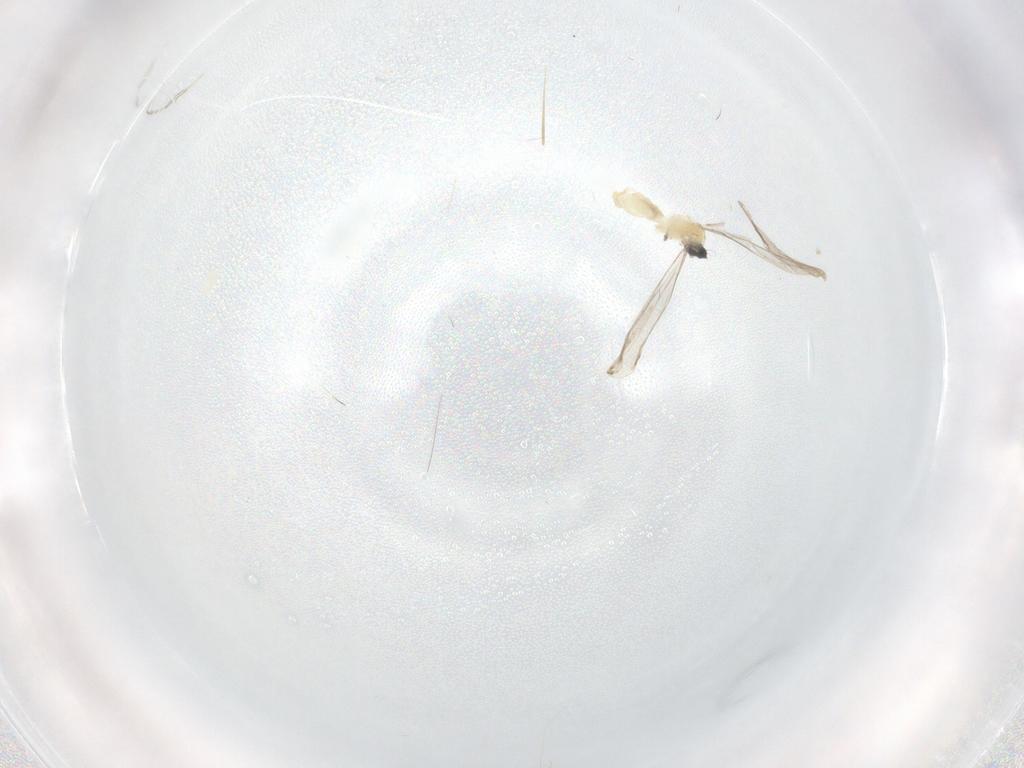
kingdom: Animalia
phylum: Arthropoda
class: Insecta
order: Diptera
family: Cecidomyiidae
